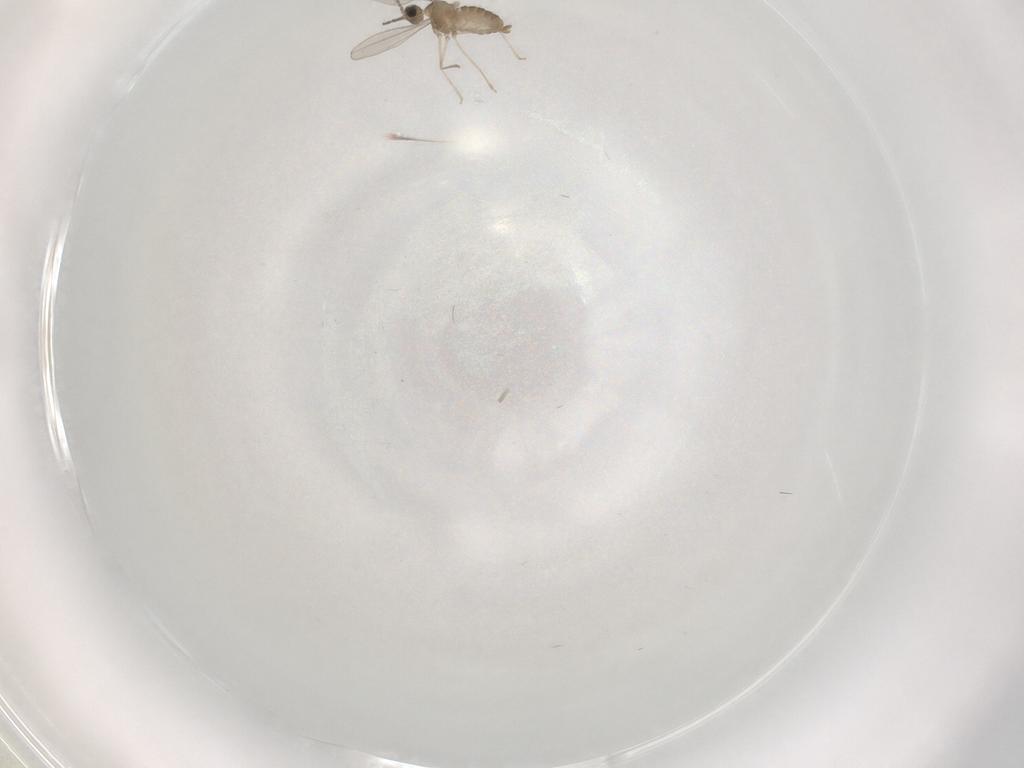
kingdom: Animalia
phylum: Arthropoda
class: Insecta
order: Diptera
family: Cecidomyiidae
